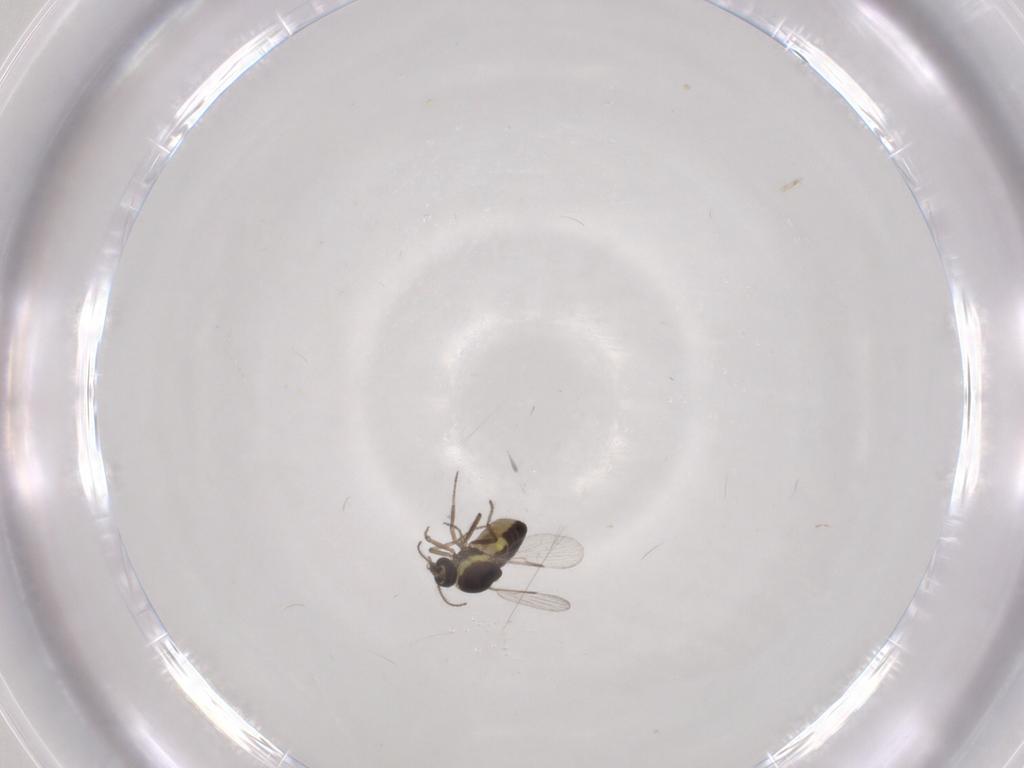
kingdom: Animalia
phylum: Arthropoda
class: Insecta
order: Diptera
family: Ceratopogonidae
